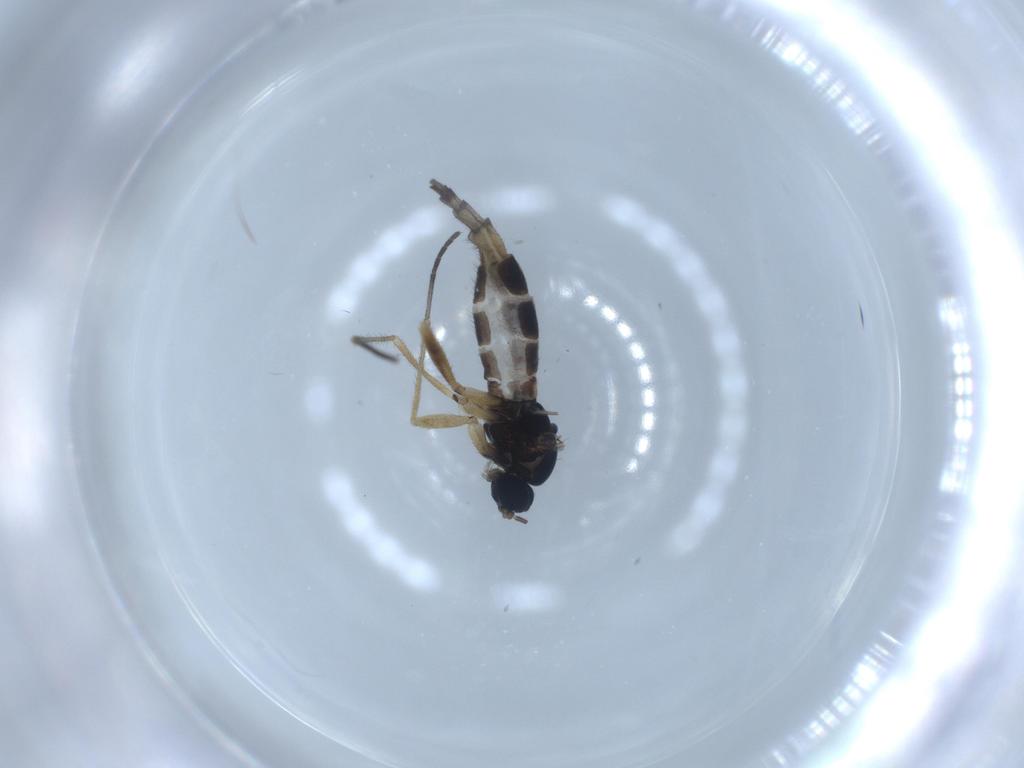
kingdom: Animalia
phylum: Arthropoda
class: Insecta
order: Diptera
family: Sciaridae
